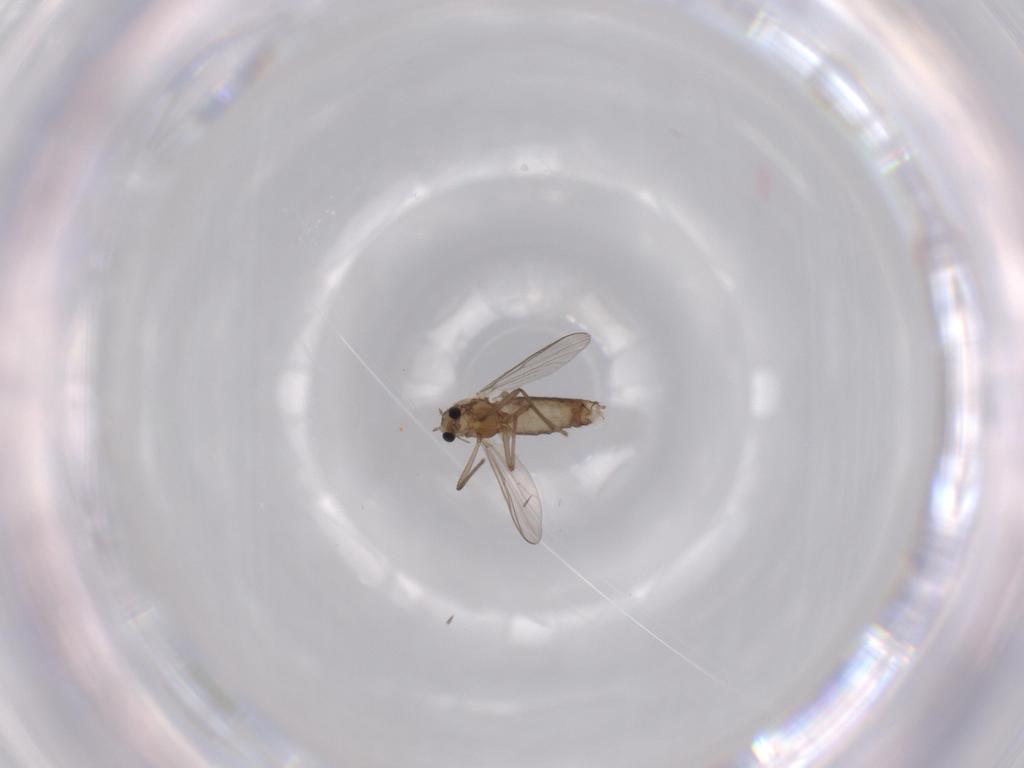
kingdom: Animalia
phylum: Arthropoda
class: Insecta
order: Diptera
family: Chironomidae
